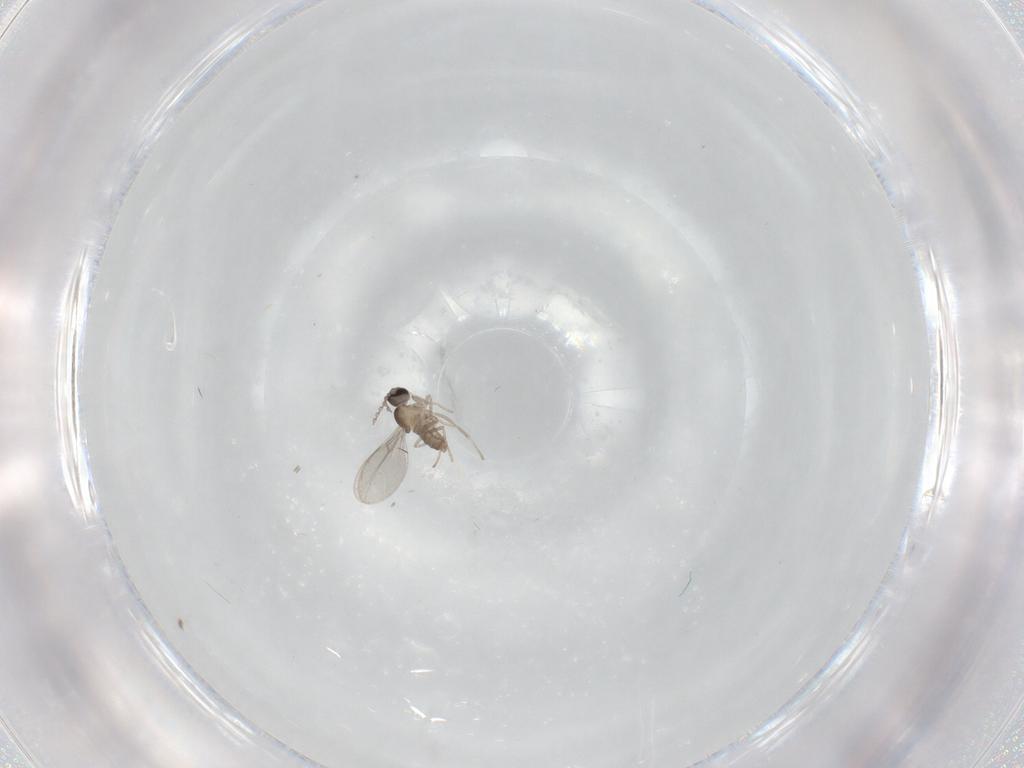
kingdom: Animalia
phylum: Arthropoda
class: Insecta
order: Diptera
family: Cecidomyiidae
